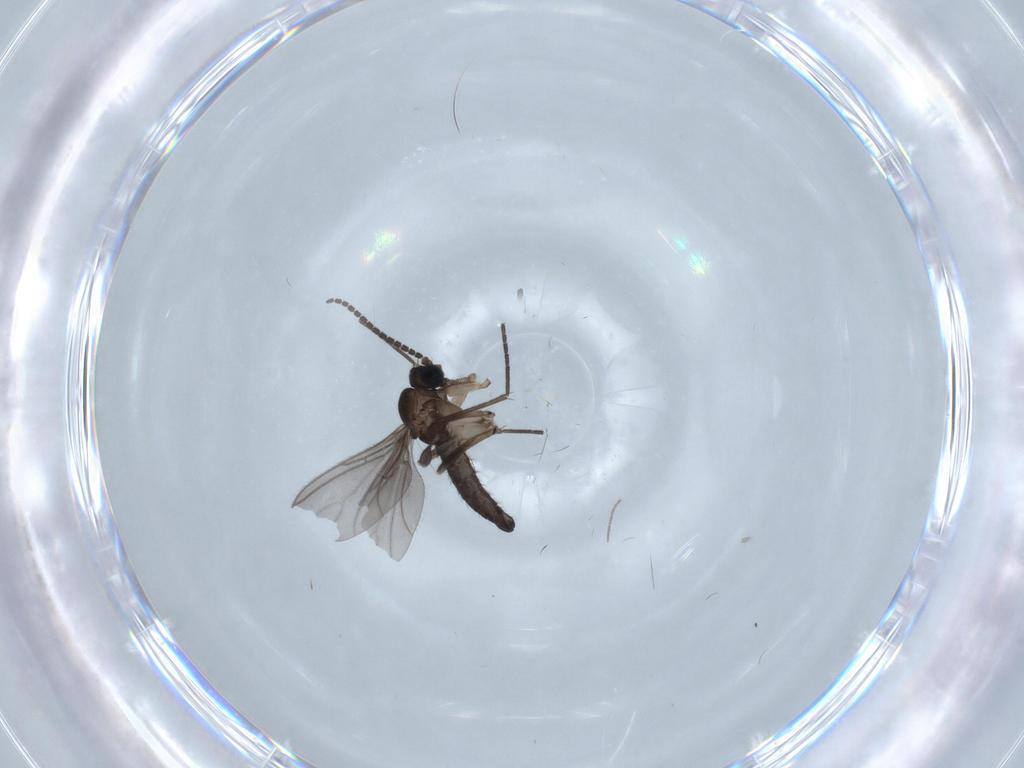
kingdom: Animalia
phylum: Arthropoda
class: Insecta
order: Diptera
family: Sciaridae
